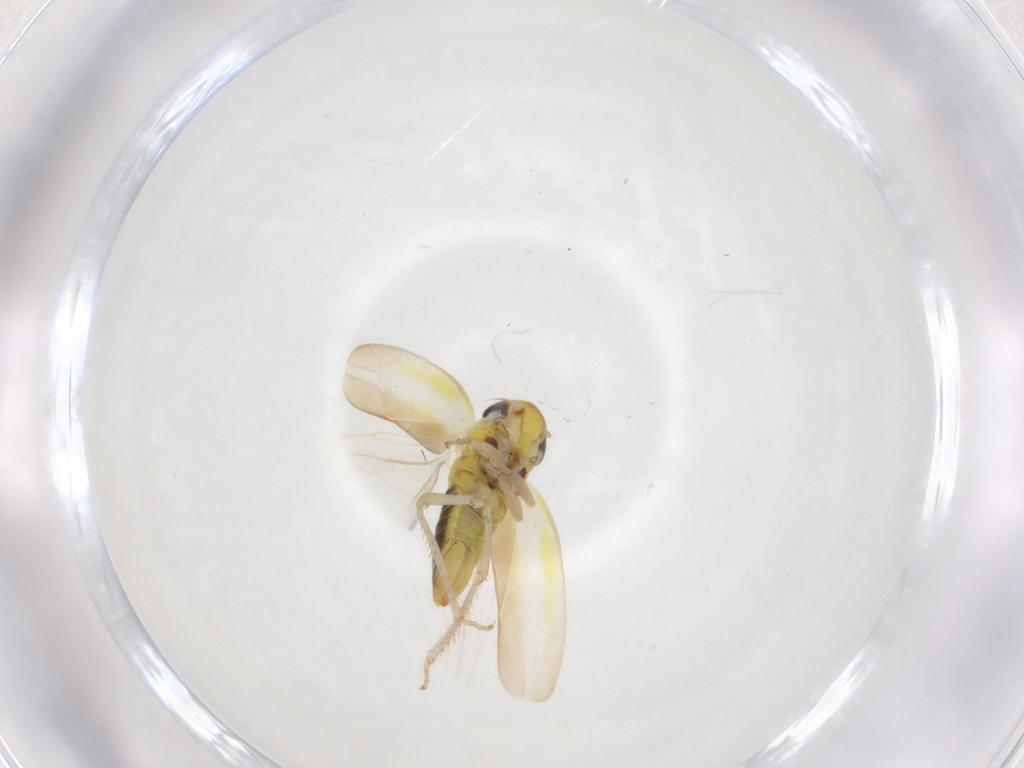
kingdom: Animalia
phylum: Arthropoda
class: Insecta
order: Hemiptera
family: Cicadellidae
